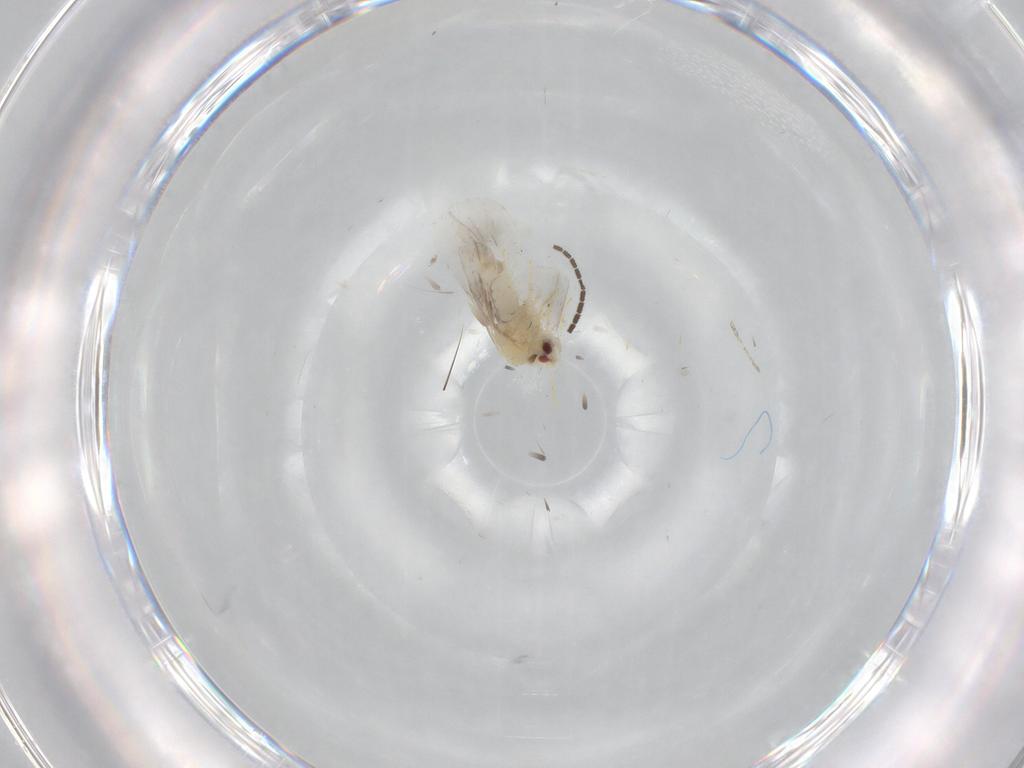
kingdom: Animalia
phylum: Arthropoda
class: Insecta
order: Hemiptera
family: Aleyrodidae
